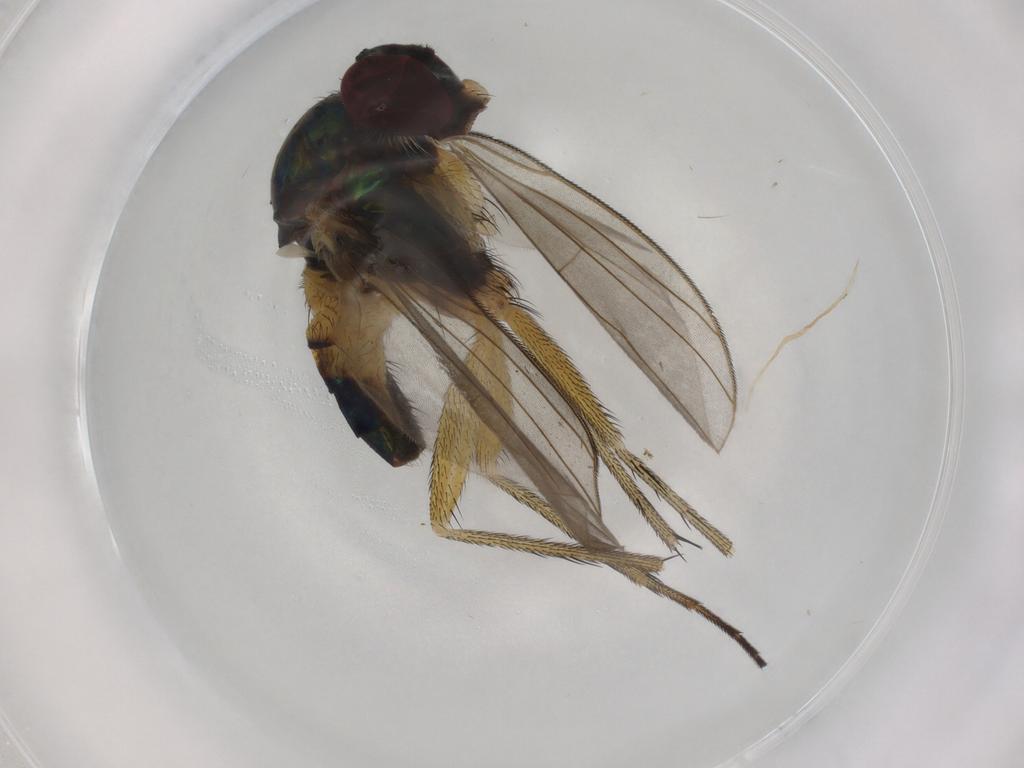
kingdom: Animalia
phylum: Arthropoda
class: Insecta
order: Diptera
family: Dolichopodidae
